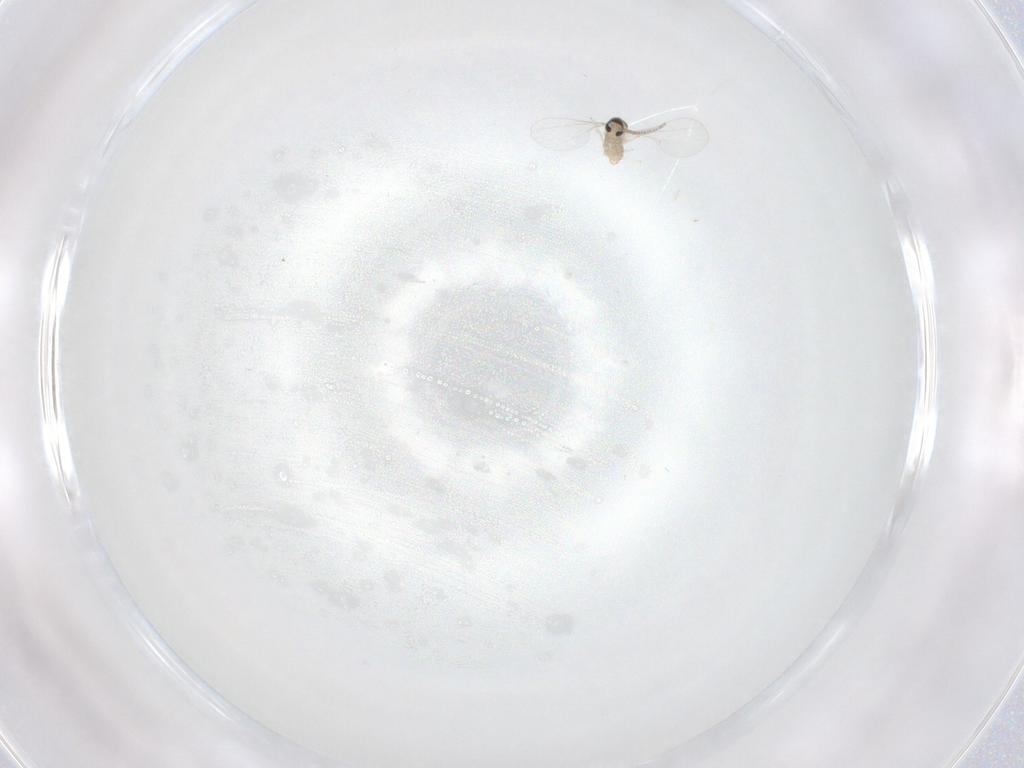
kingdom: Animalia
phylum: Arthropoda
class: Insecta
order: Diptera
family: Cecidomyiidae
